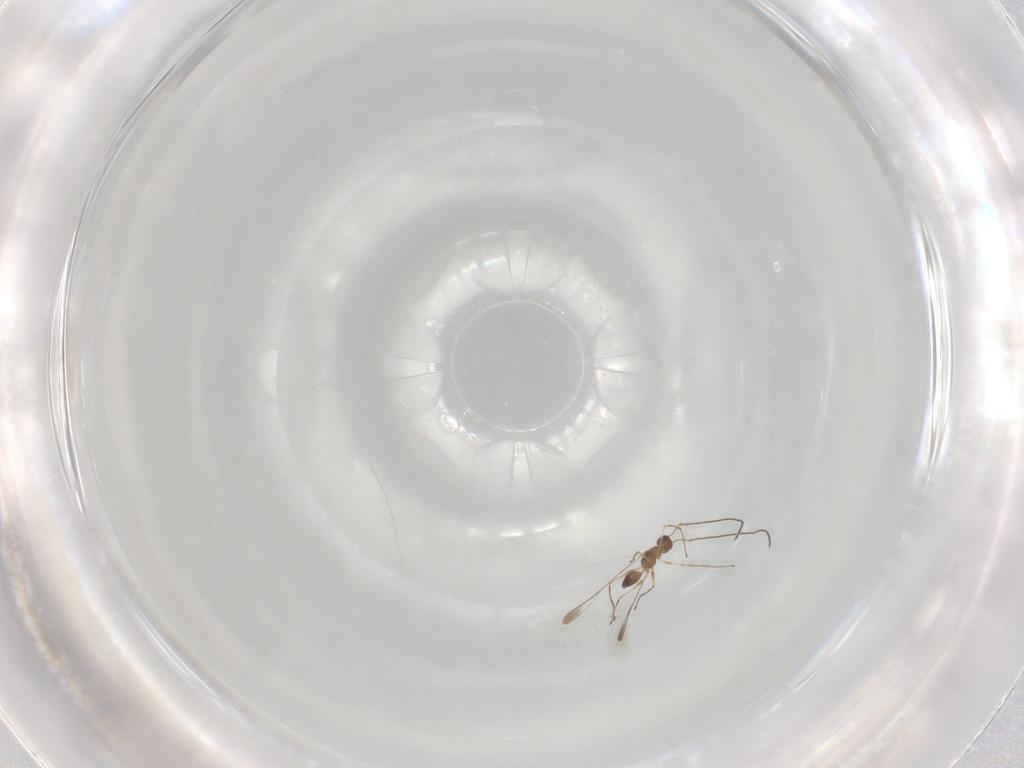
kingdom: Animalia
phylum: Arthropoda
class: Insecta
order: Hymenoptera
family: Mymaridae
